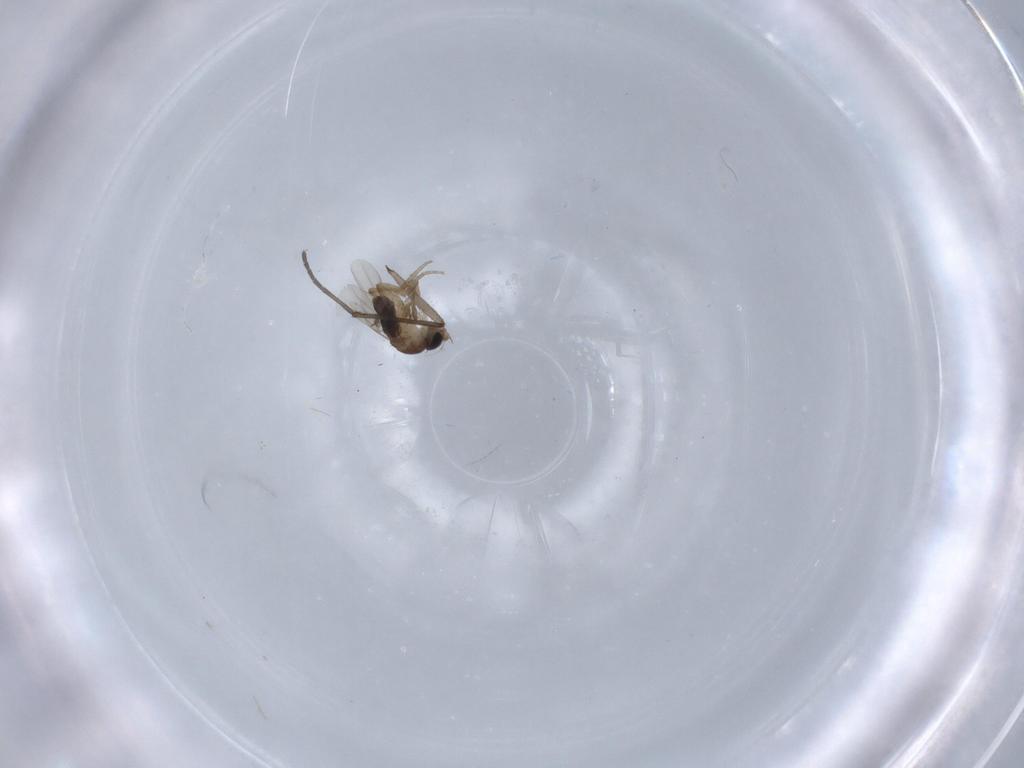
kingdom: Animalia
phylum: Arthropoda
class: Insecta
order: Diptera
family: Phoridae
